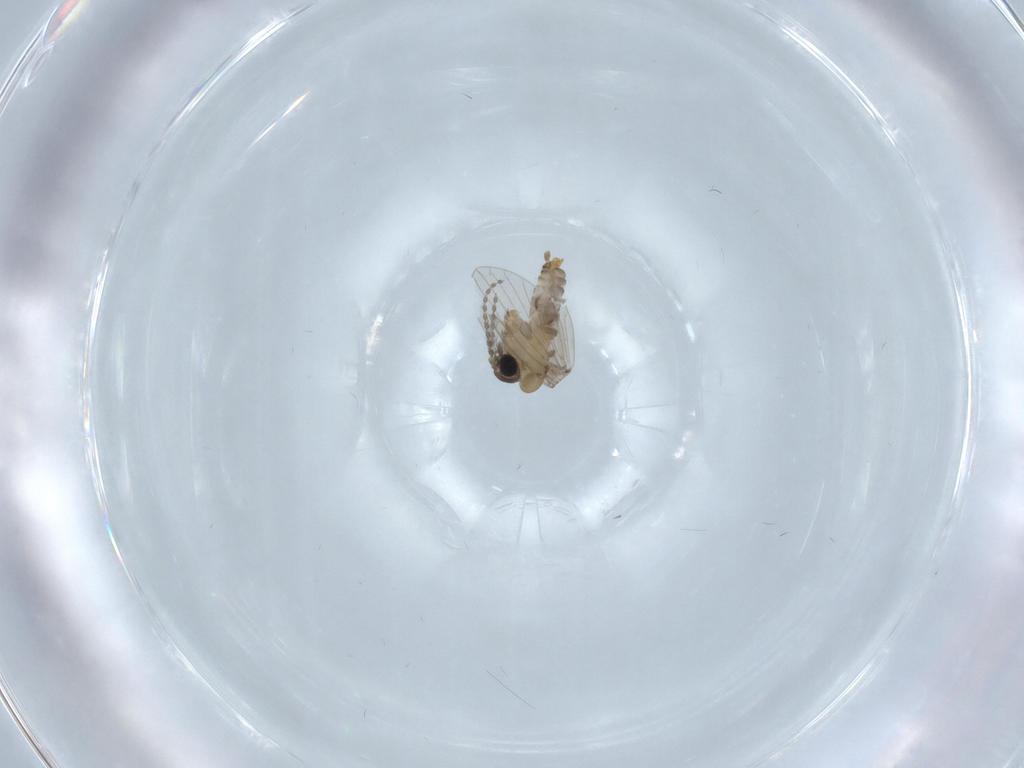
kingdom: Animalia
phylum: Arthropoda
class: Insecta
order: Diptera
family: Psychodidae
